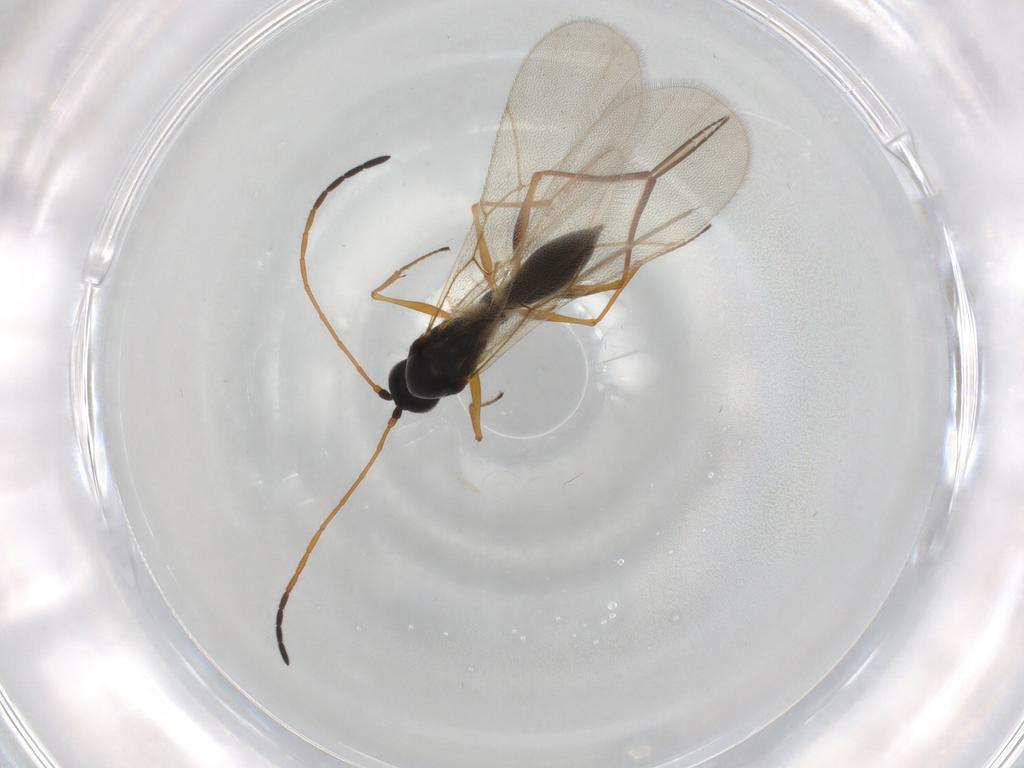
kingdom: Animalia
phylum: Arthropoda
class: Insecta
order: Hymenoptera
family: Figitidae
